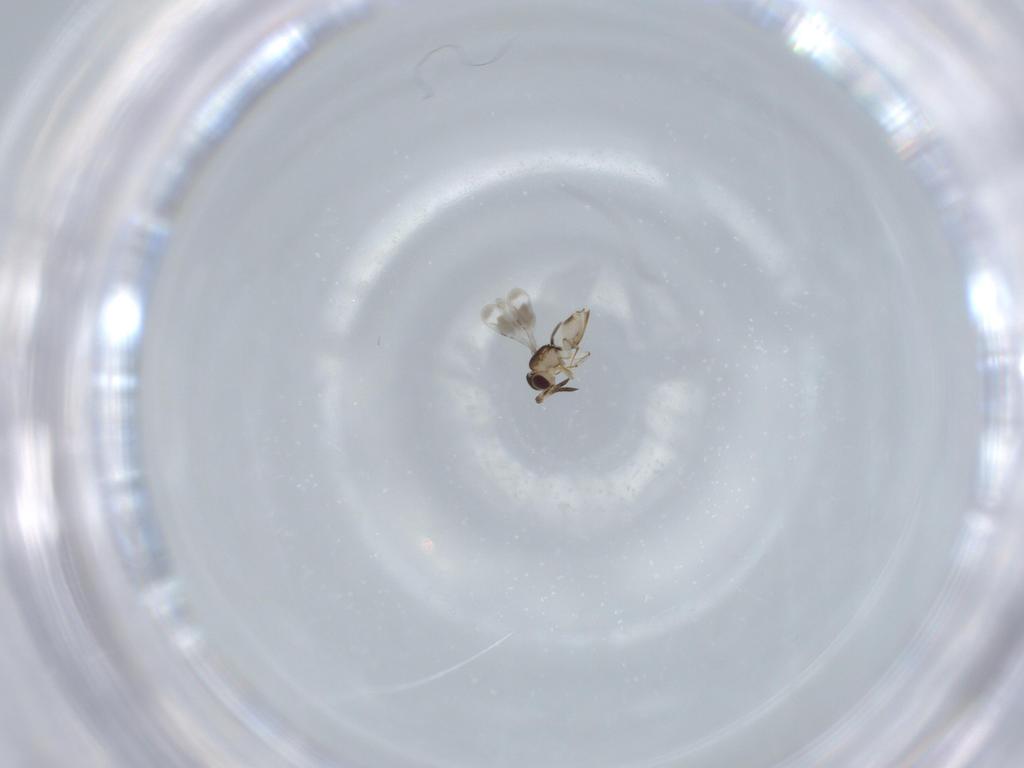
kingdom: Animalia
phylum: Arthropoda
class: Insecta
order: Hymenoptera
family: Scelionidae
